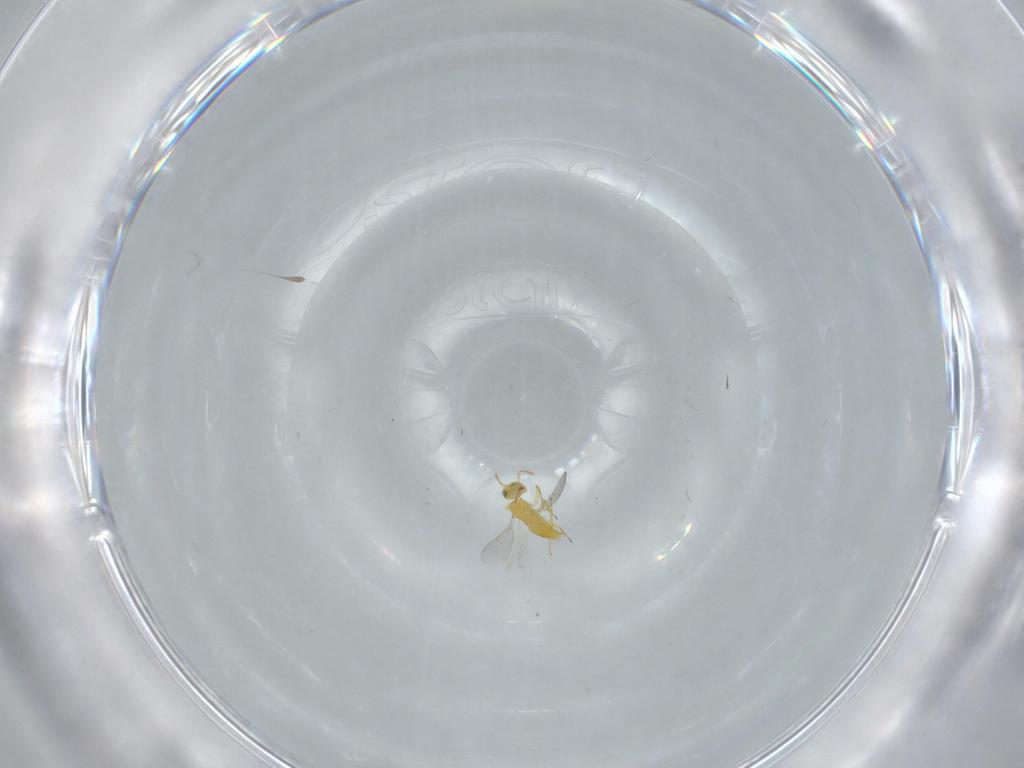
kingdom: Animalia
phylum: Arthropoda
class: Insecta
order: Hymenoptera
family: Aphelinidae
